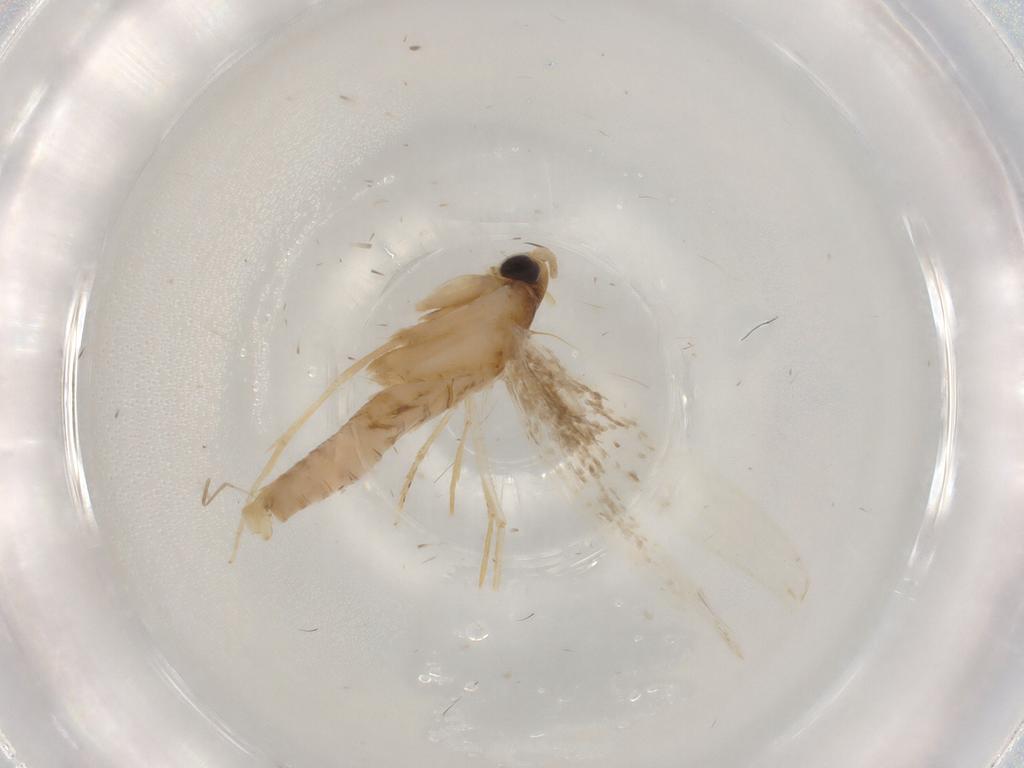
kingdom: Animalia
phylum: Arthropoda
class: Insecta
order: Lepidoptera
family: Tineidae
